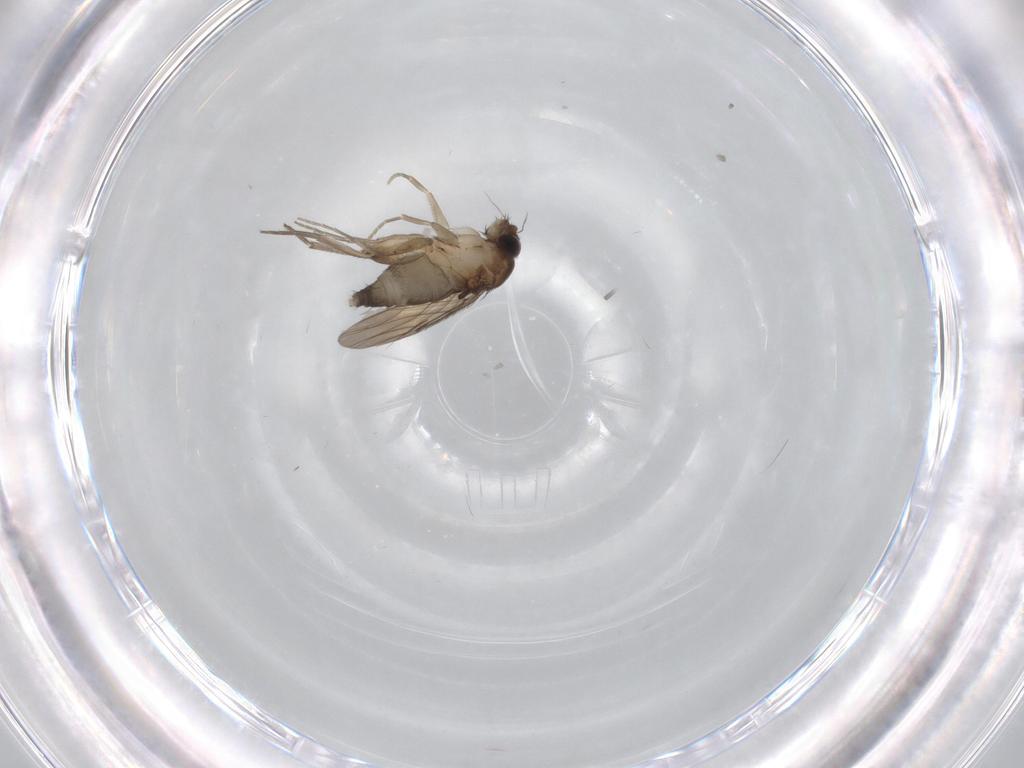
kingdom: Animalia
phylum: Arthropoda
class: Insecta
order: Diptera
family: Phoridae
